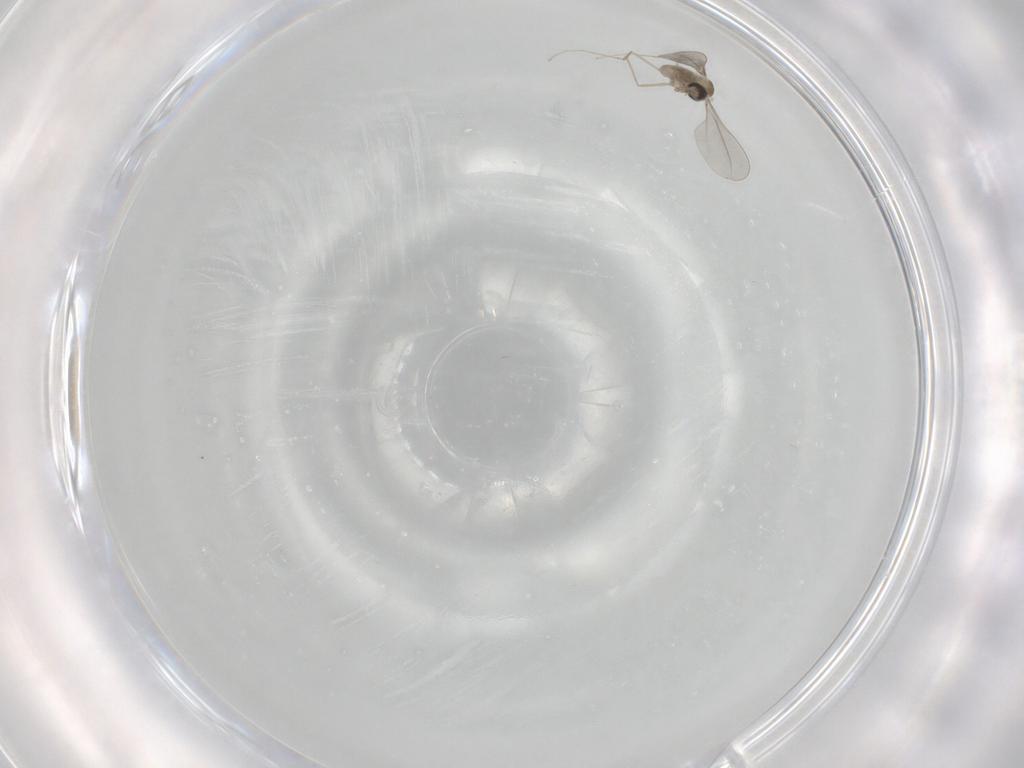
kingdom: Animalia
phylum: Arthropoda
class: Insecta
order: Diptera
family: Cecidomyiidae
